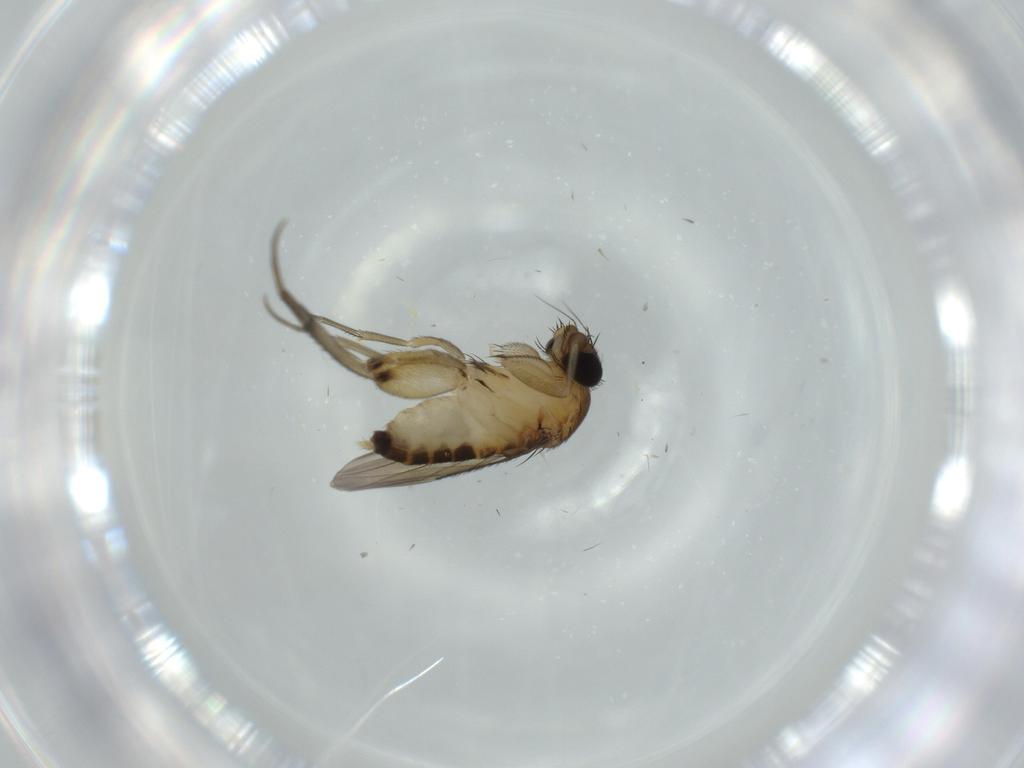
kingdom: Animalia
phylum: Arthropoda
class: Insecta
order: Diptera
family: Phoridae
